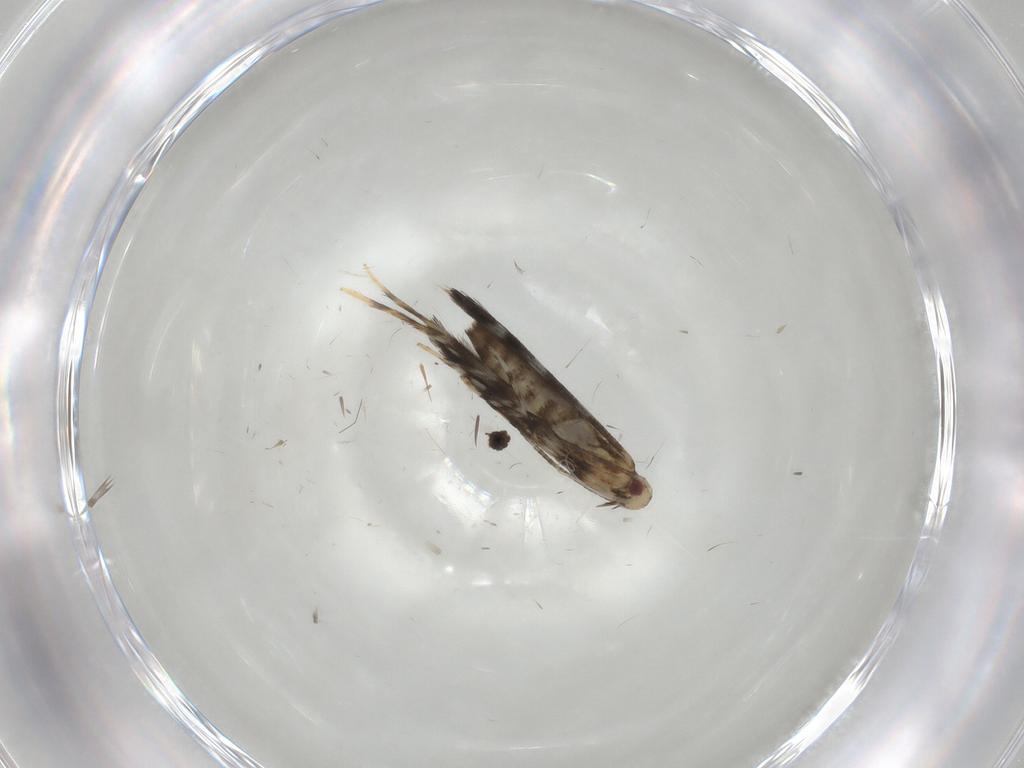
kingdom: Animalia
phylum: Arthropoda
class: Insecta
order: Lepidoptera
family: Gracillariidae
